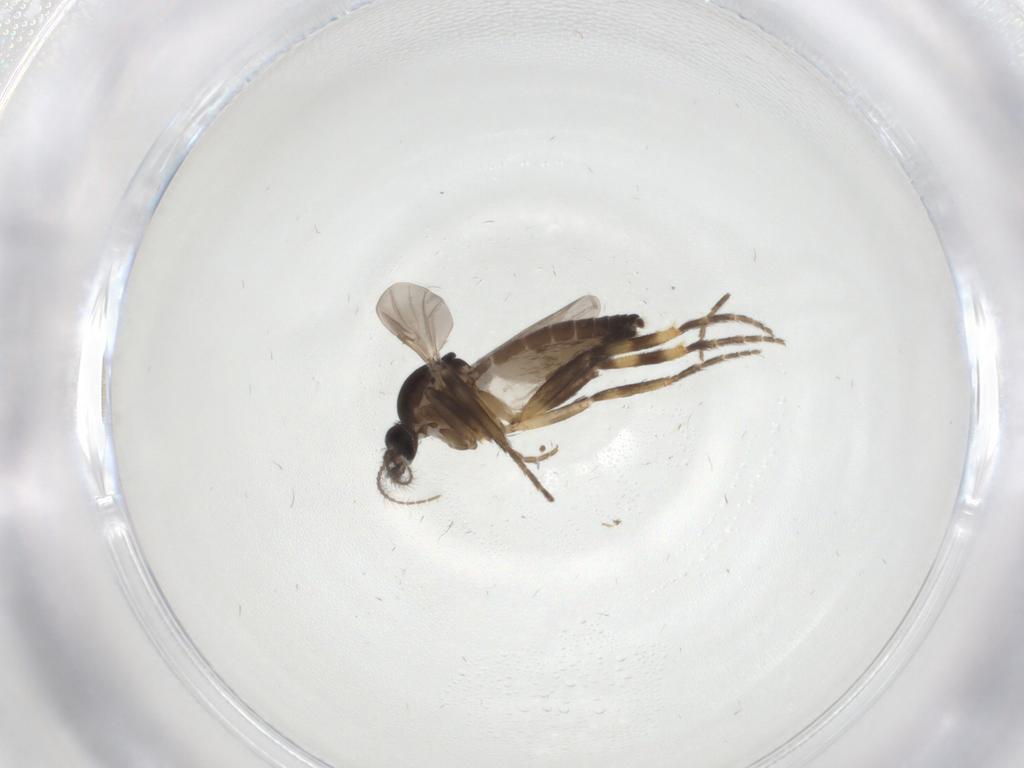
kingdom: Animalia
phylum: Arthropoda
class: Insecta
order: Diptera
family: Ceratopogonidae
